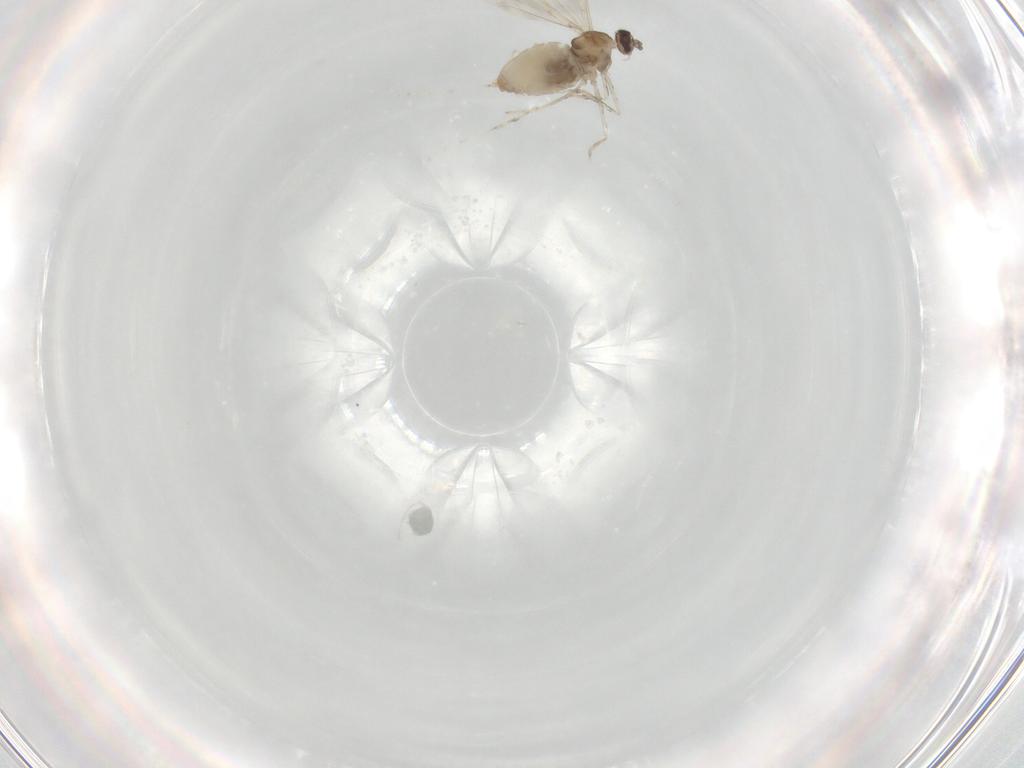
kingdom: Animalia
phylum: Arthropoda
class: Insecta
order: Diptera
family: Cecidomyiidae
